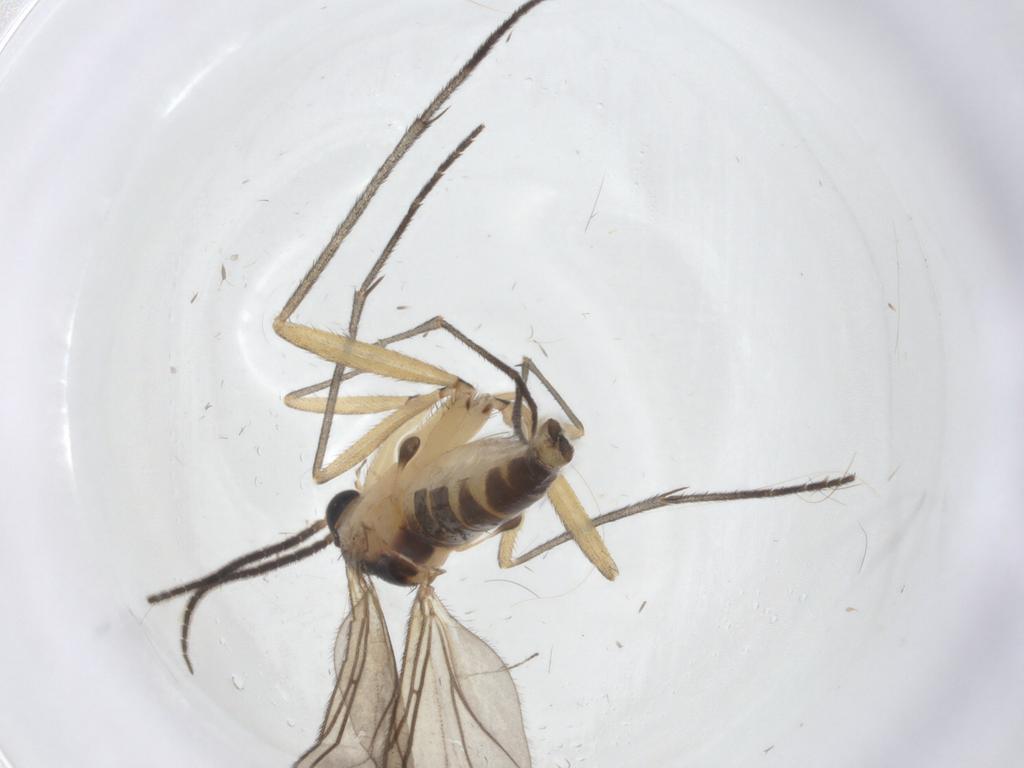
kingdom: Animalia
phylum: Arthropoda
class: Insecta
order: Diptera
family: Sciaridae
